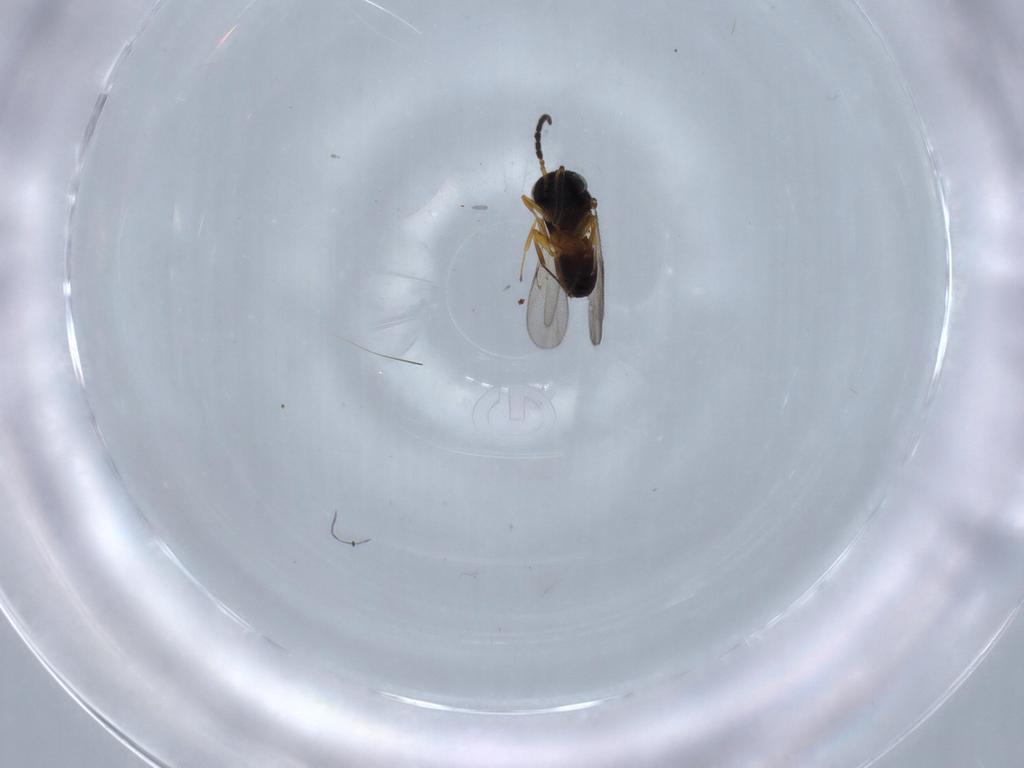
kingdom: Animalia
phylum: Arthropoda
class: Insecta
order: Hymenoptera
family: Scelionidae
